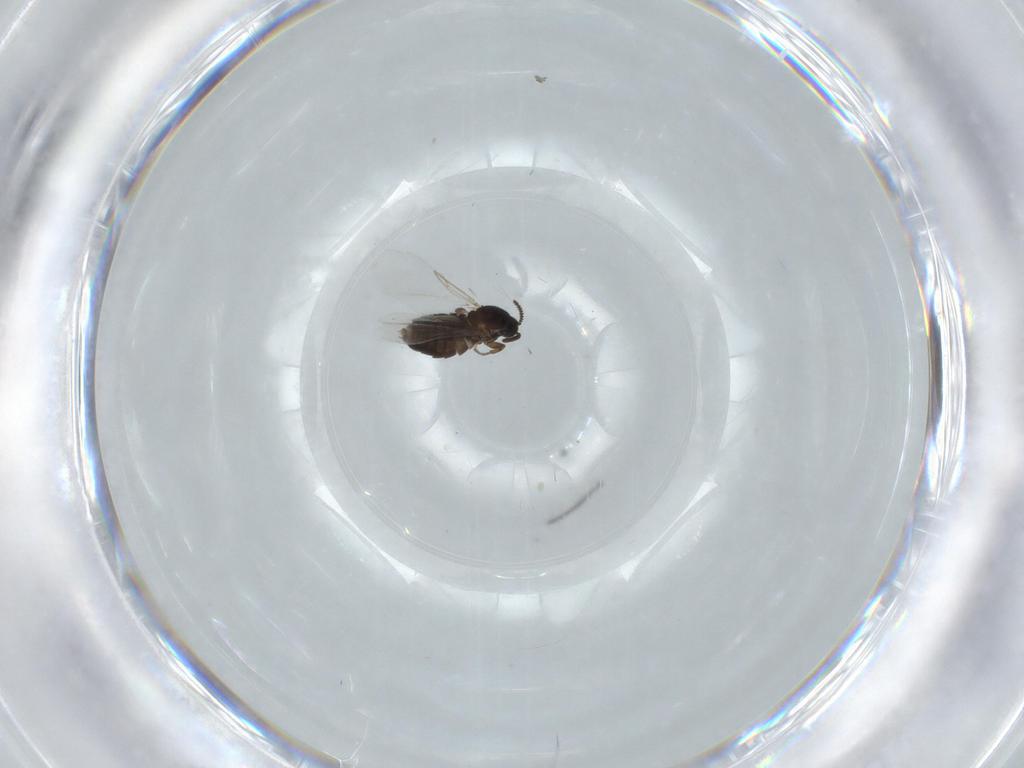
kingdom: Animalia
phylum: Arthropoda
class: Insecta
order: Diptera
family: Scatopsidae
